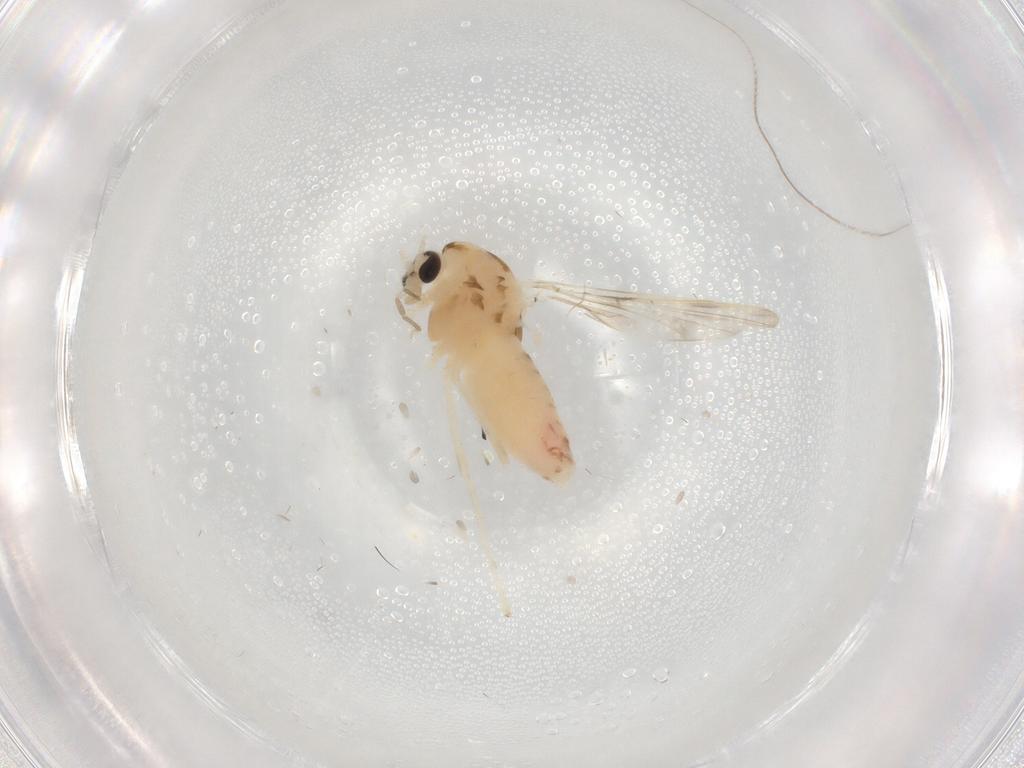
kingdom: Animalia
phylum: Arthropoda
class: Insecta
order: Diptera
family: Chironomidae
